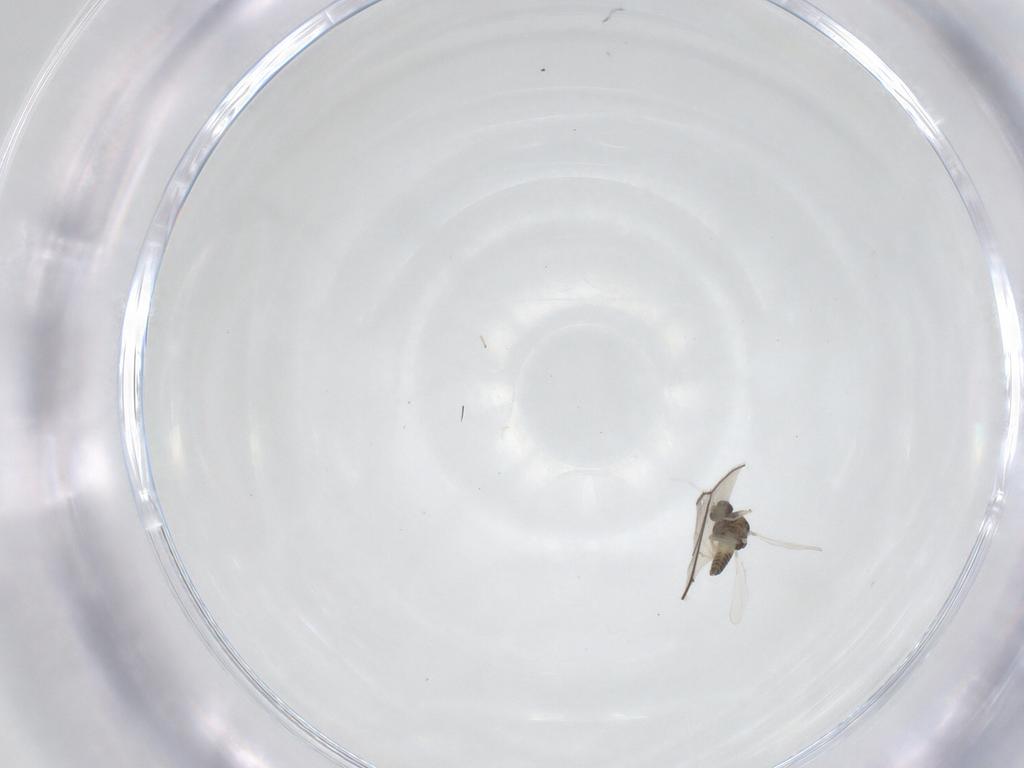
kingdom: Animalia
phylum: Arthropoda
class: Insecta
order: Diptera
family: Chironomidae
